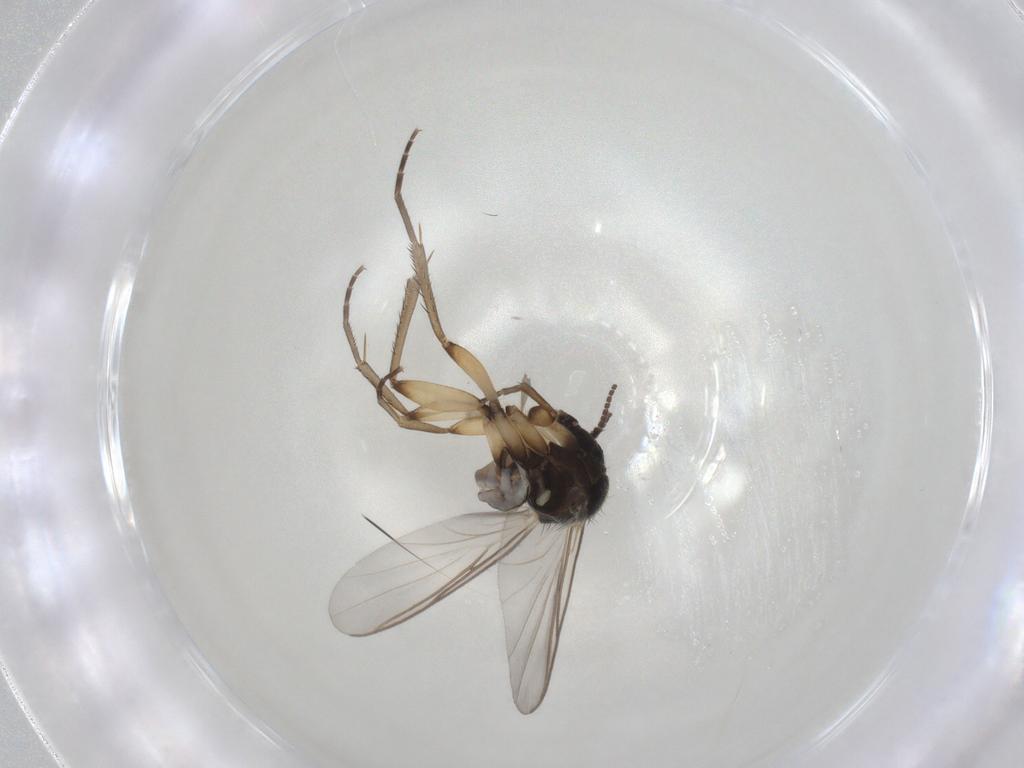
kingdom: Animalia
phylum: Arthropoda
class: Insecta
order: Diptera
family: Mycetophilidae
